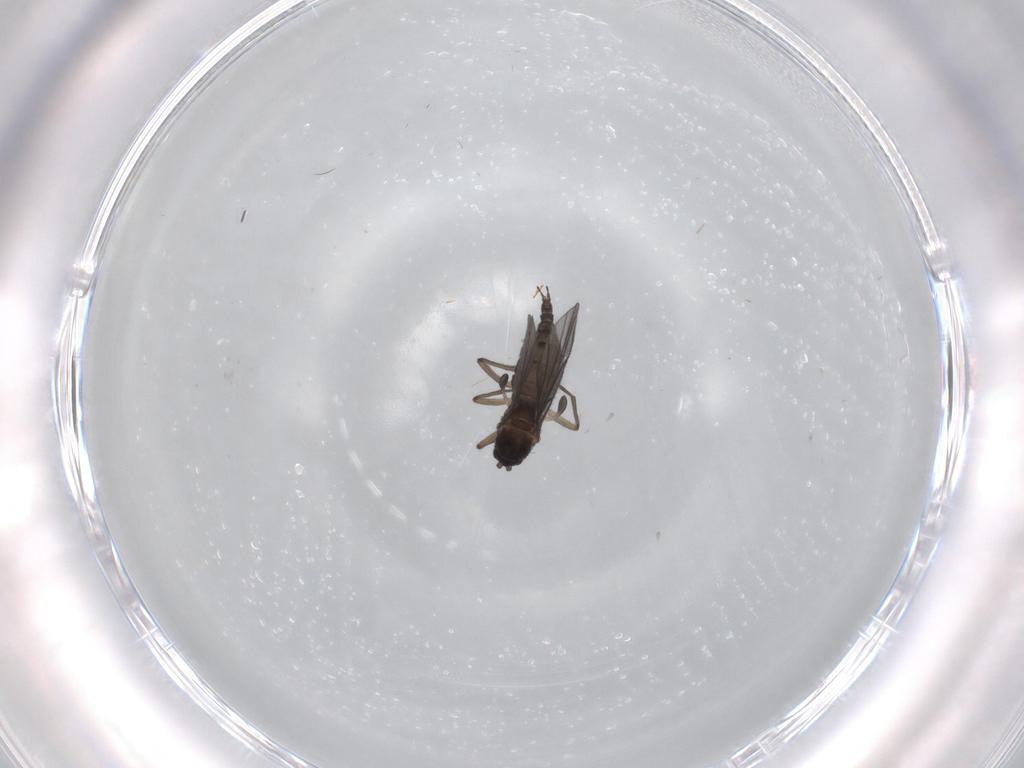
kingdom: Animalia
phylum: Arthropoda
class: Insecta
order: Diptera
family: Sciaridae
